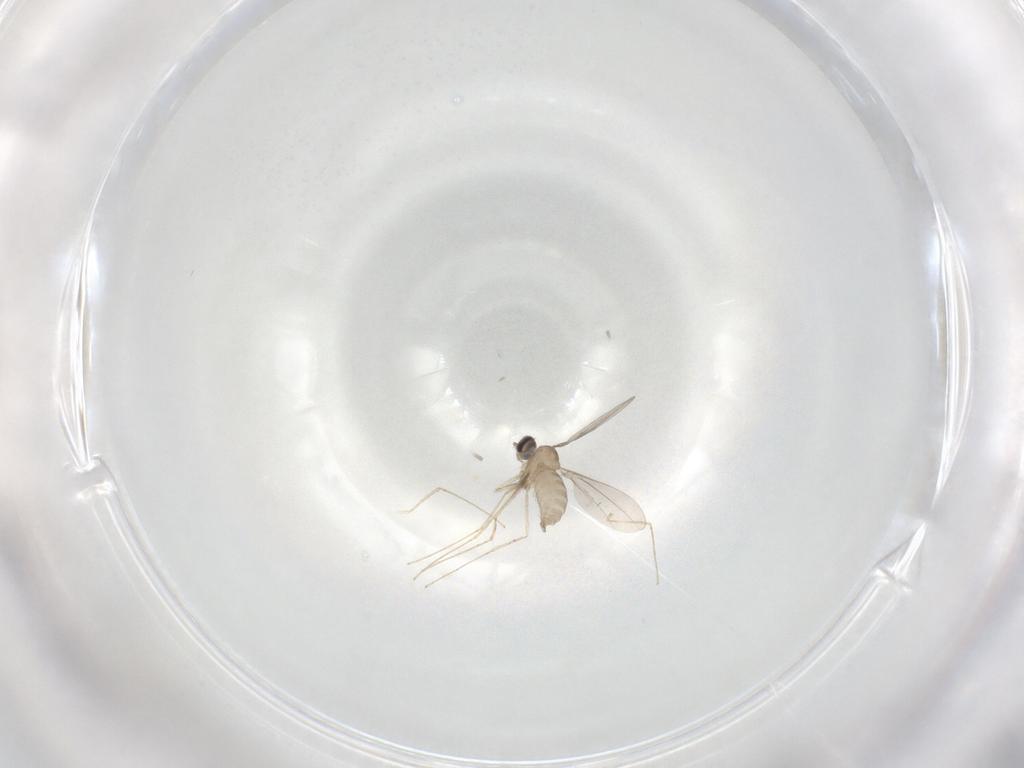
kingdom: Animalia
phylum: Arthropoda
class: Insecta
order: Diptera
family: Cecidomyiidae
